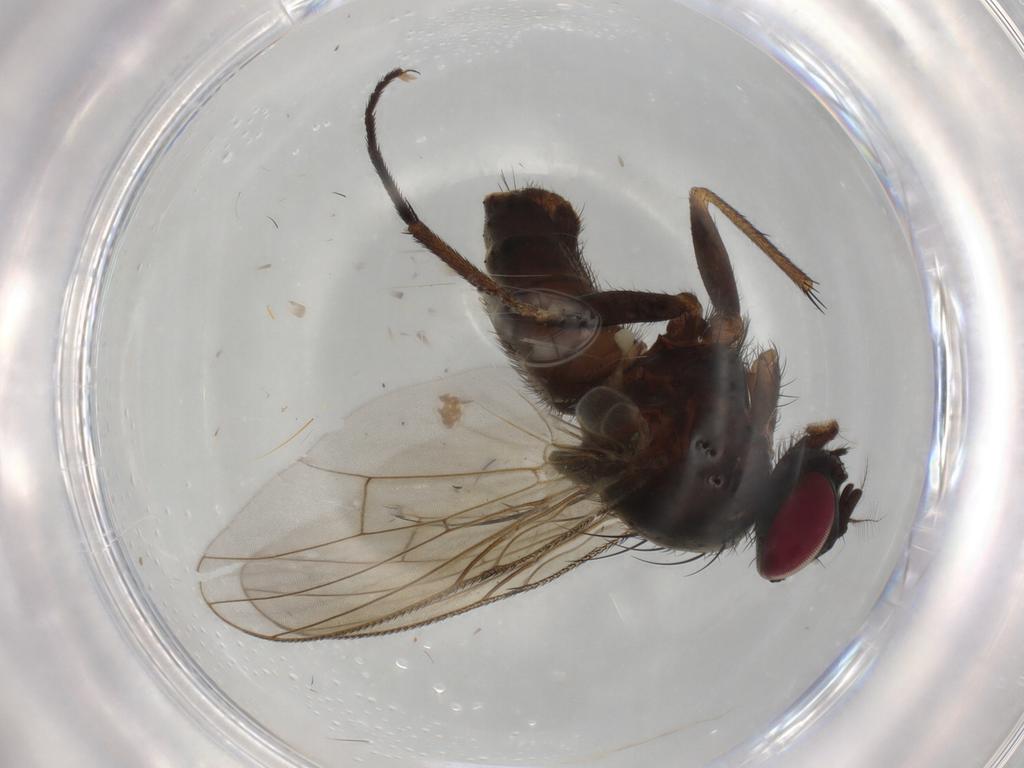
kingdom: Animalia
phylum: Arthropoda
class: Insecta
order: Diptera
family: Muscidae
